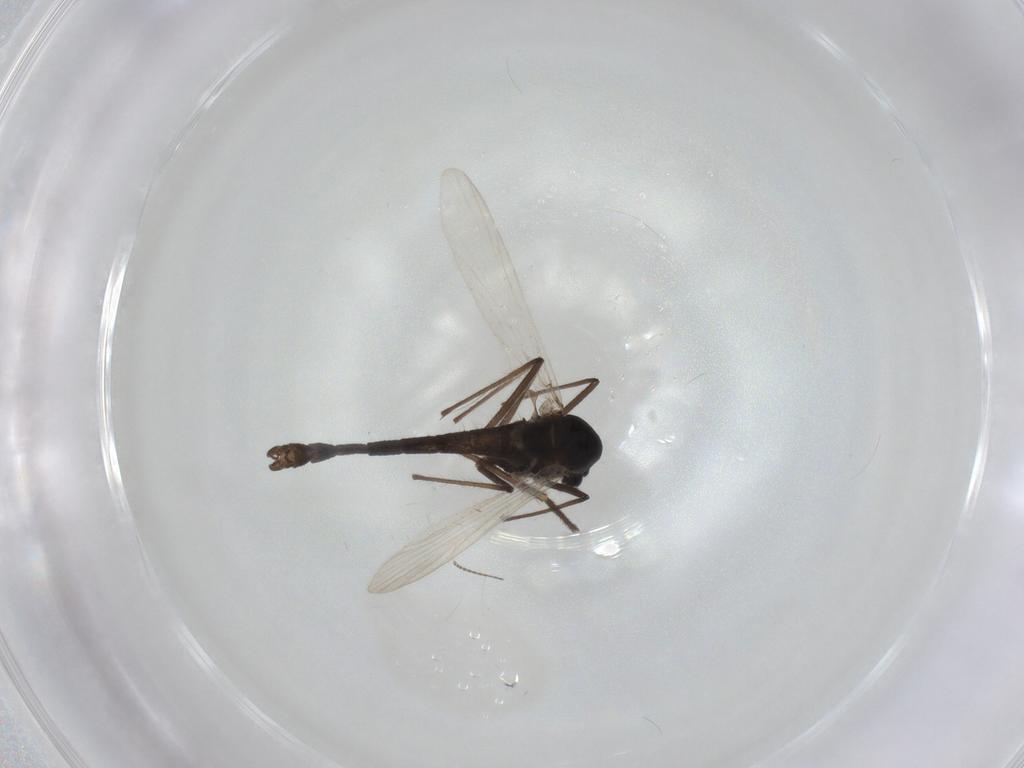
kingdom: Animalia
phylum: Arthropoda
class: Insecta
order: Diptera
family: Chironomidae
